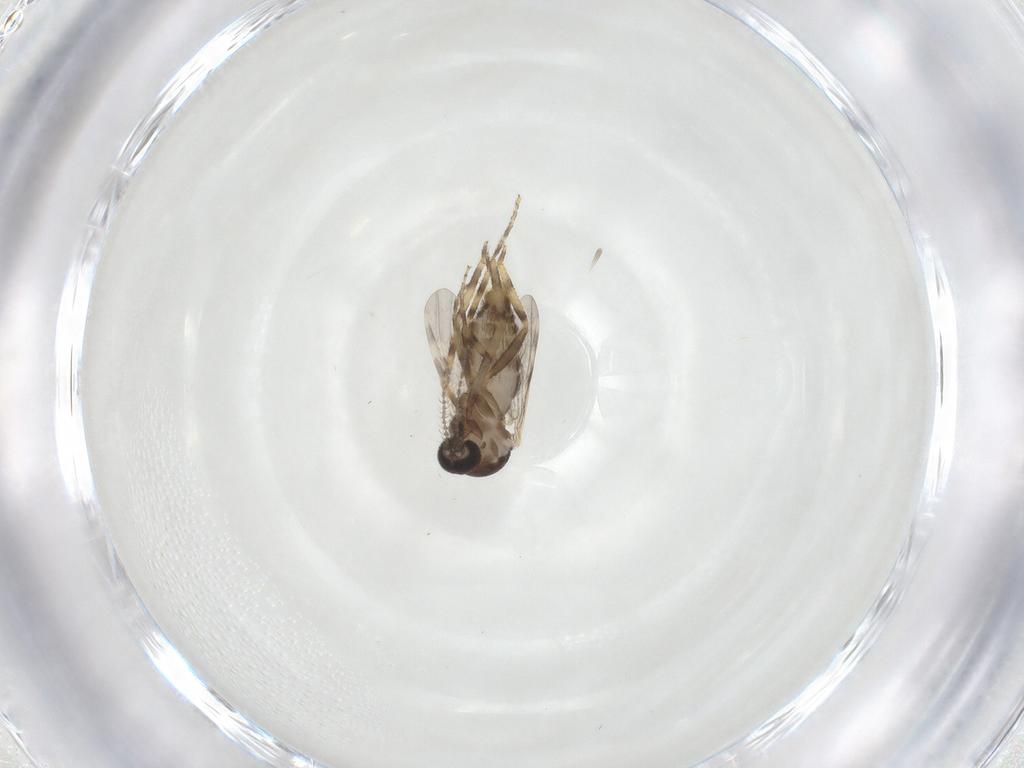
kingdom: Animalia
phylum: Arthropoda
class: Insecta
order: Diptera
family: Ceratopogonidae
